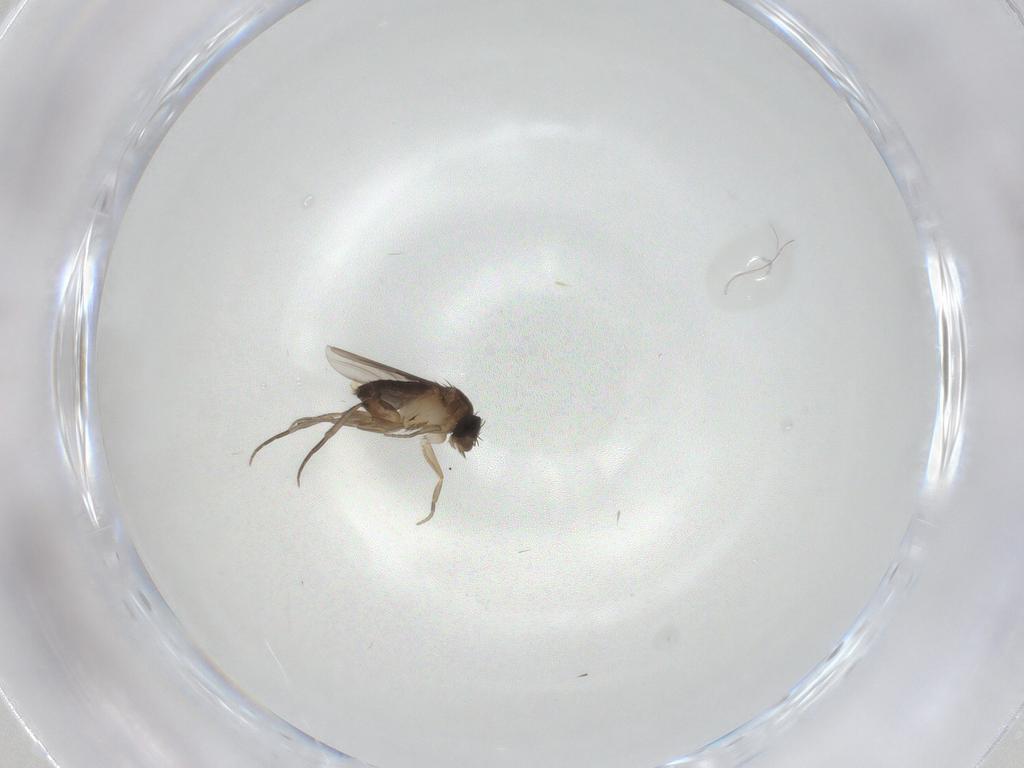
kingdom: Animalia
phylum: Arthropoda
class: Insecta
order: Diptera
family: Phoridae
